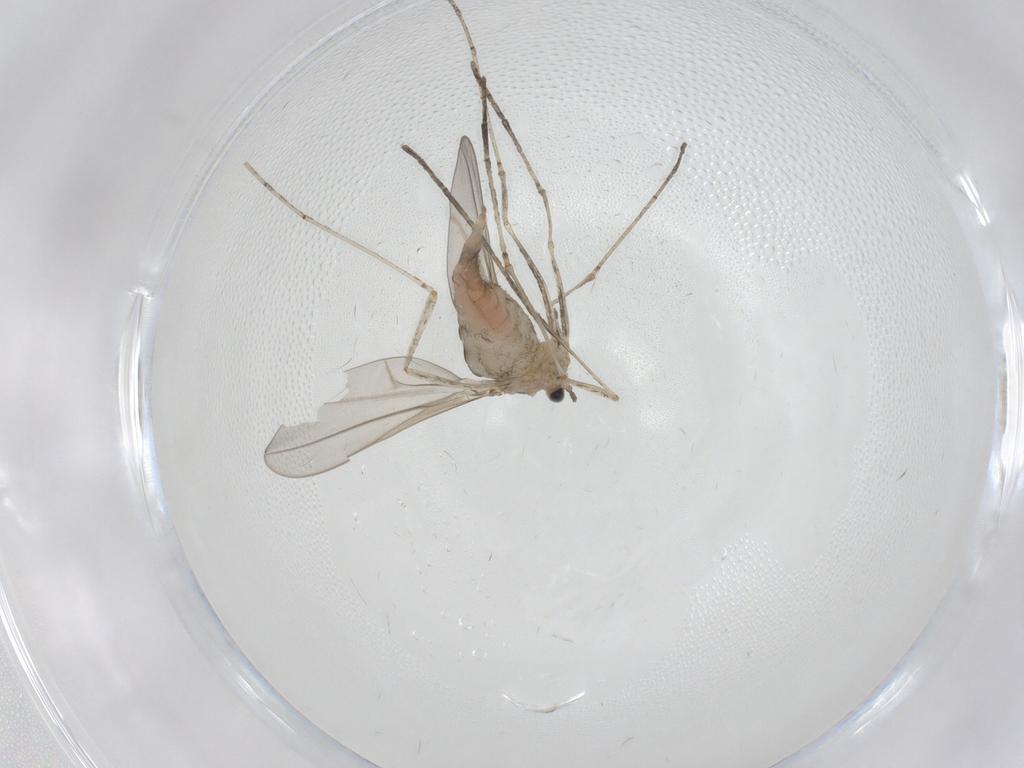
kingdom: Animalia
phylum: Arthropoda
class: Insecta
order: Diptera
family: Cecidomyiidae
